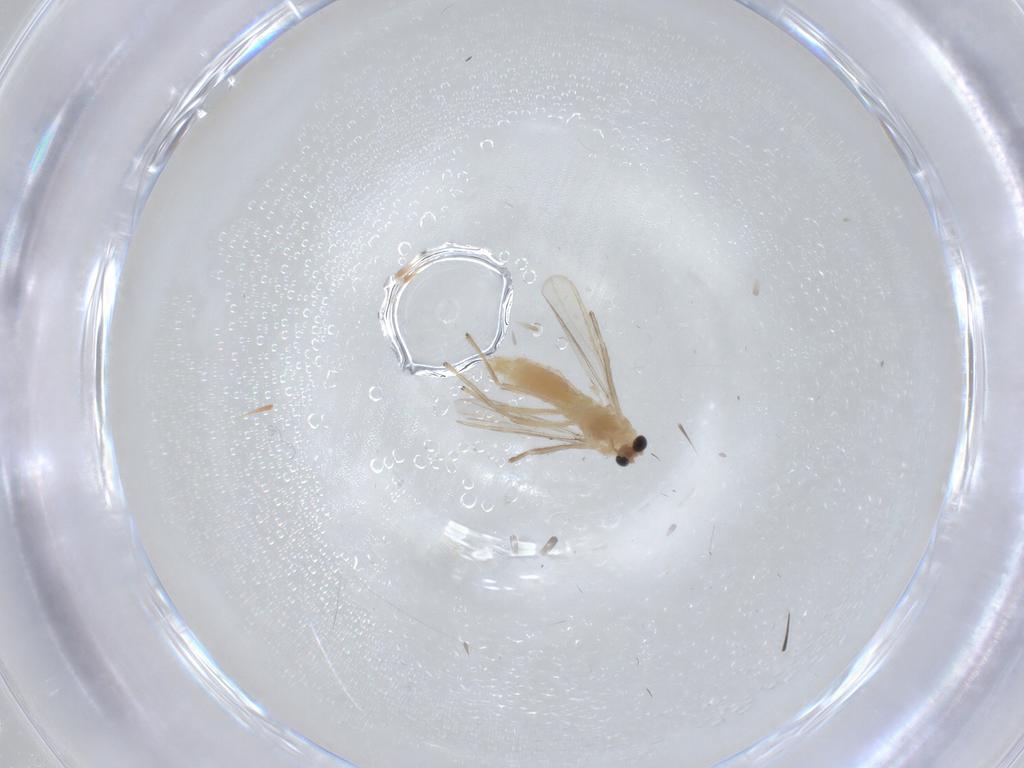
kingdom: Animalia
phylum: Arthropoda
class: Insecta
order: Diptera
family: Chironomidae
